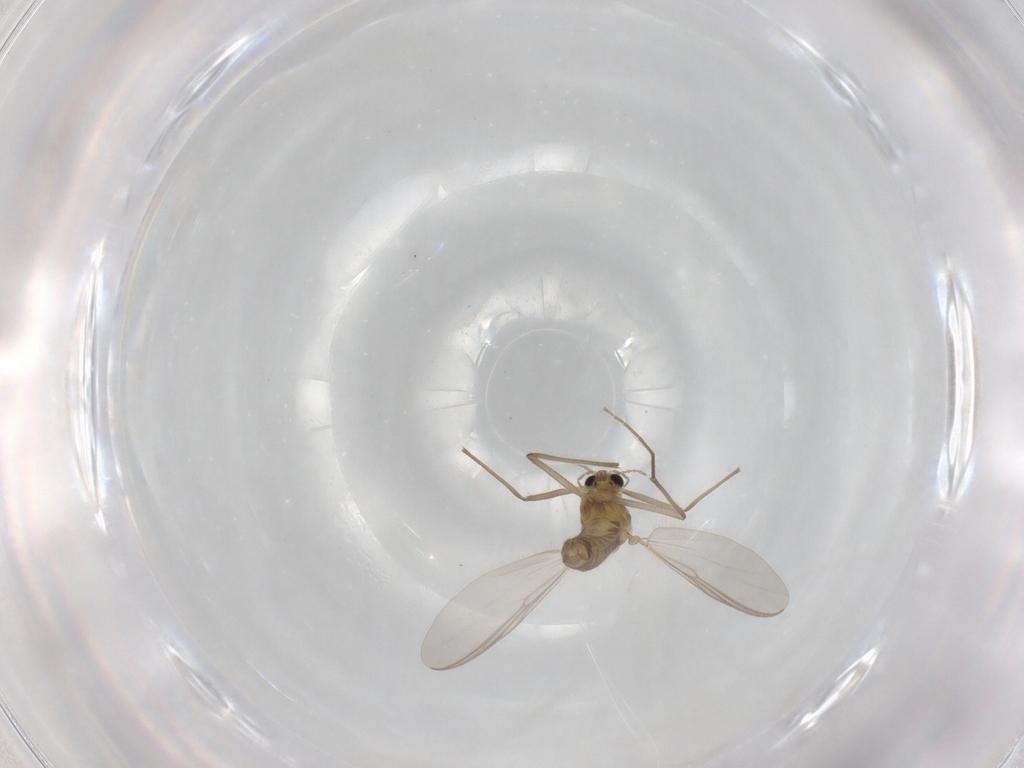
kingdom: Animalia
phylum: Arthropoda
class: Insecta
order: Diptera
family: Chironomidae
